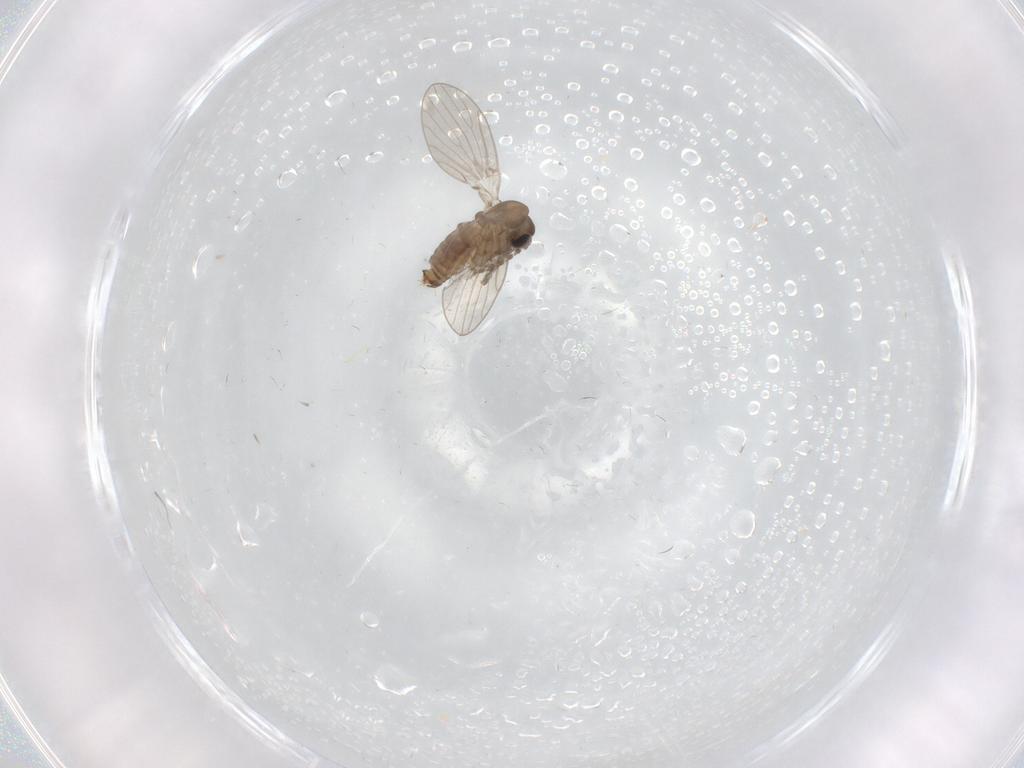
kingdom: Animalia
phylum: Arthropoda
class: Insecta
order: Diptera
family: Psychodidae
